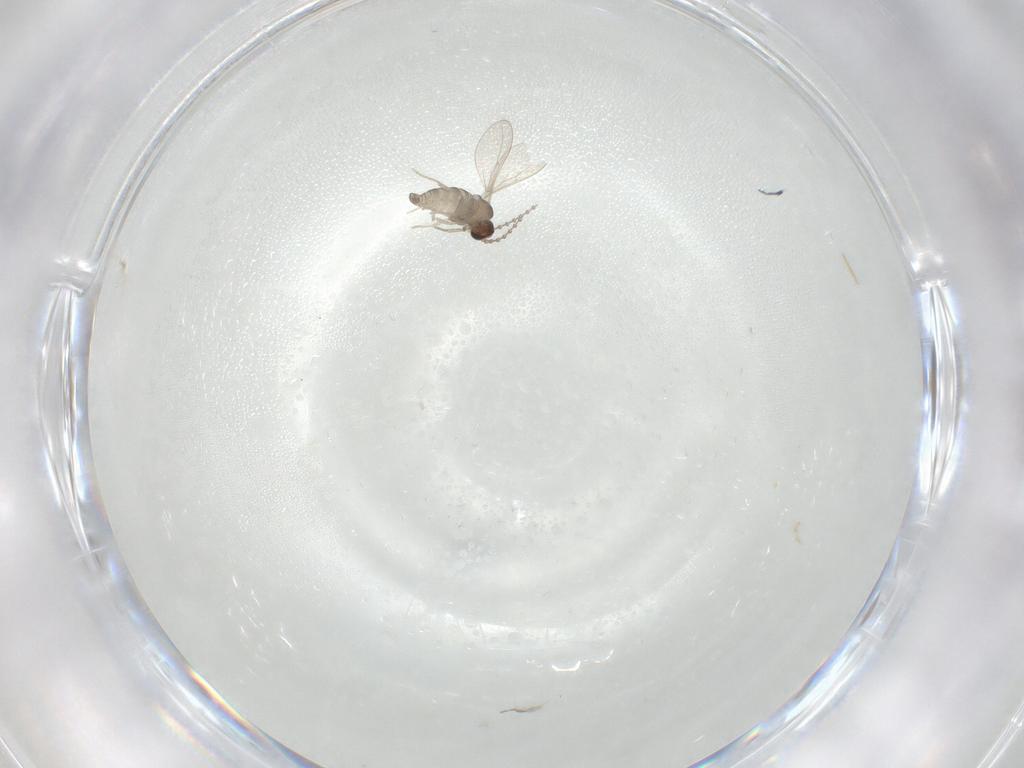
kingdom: Animalia
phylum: Arthropoda
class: Insecta
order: Diptera
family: Cecidomyiidae
